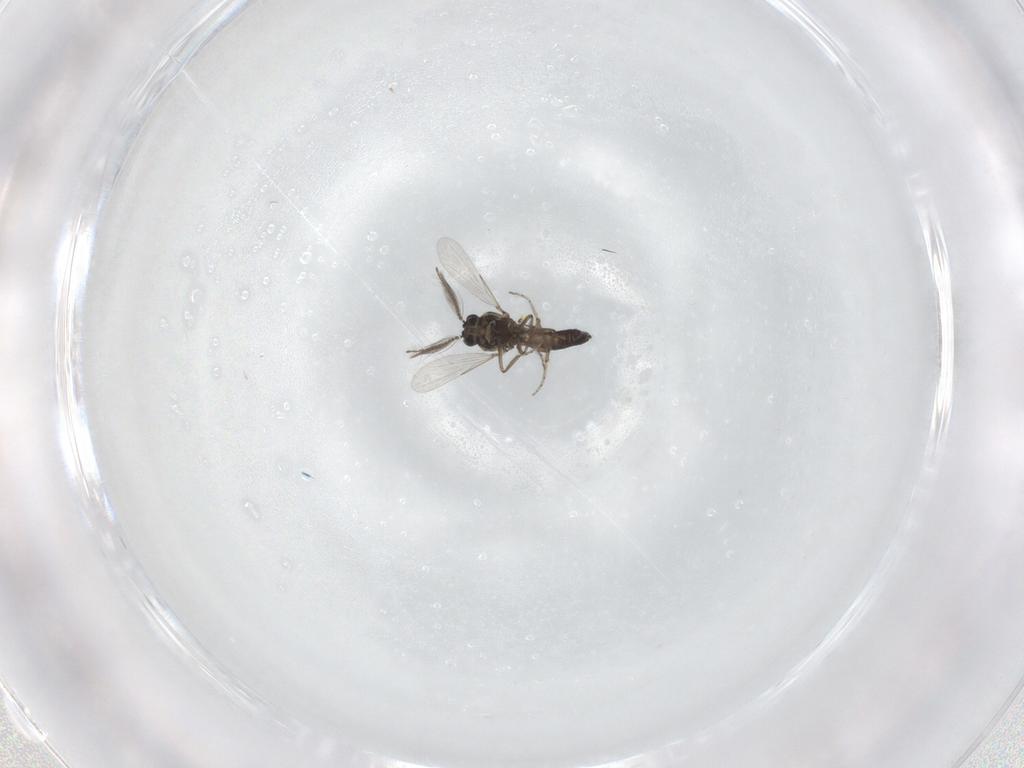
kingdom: Animalia
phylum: Arthropoda
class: Insecta
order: Diptera
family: Ceratopogonidae
